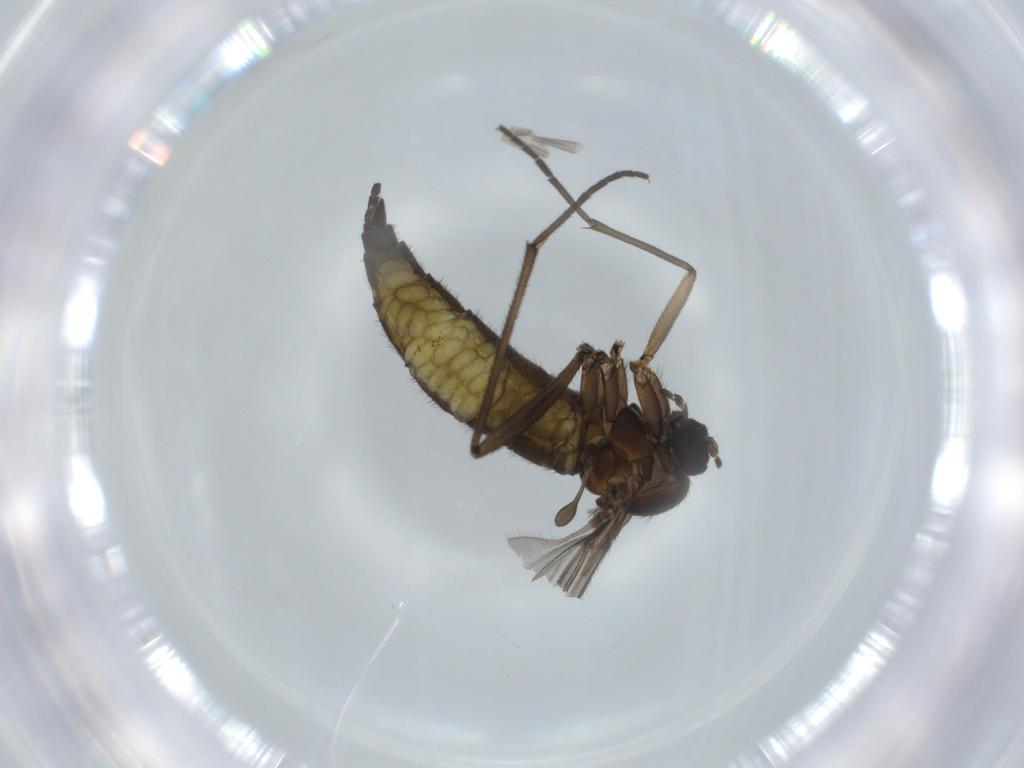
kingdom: Animalia
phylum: Arthropoda
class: Insecta
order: Diptera
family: Sciaridae
